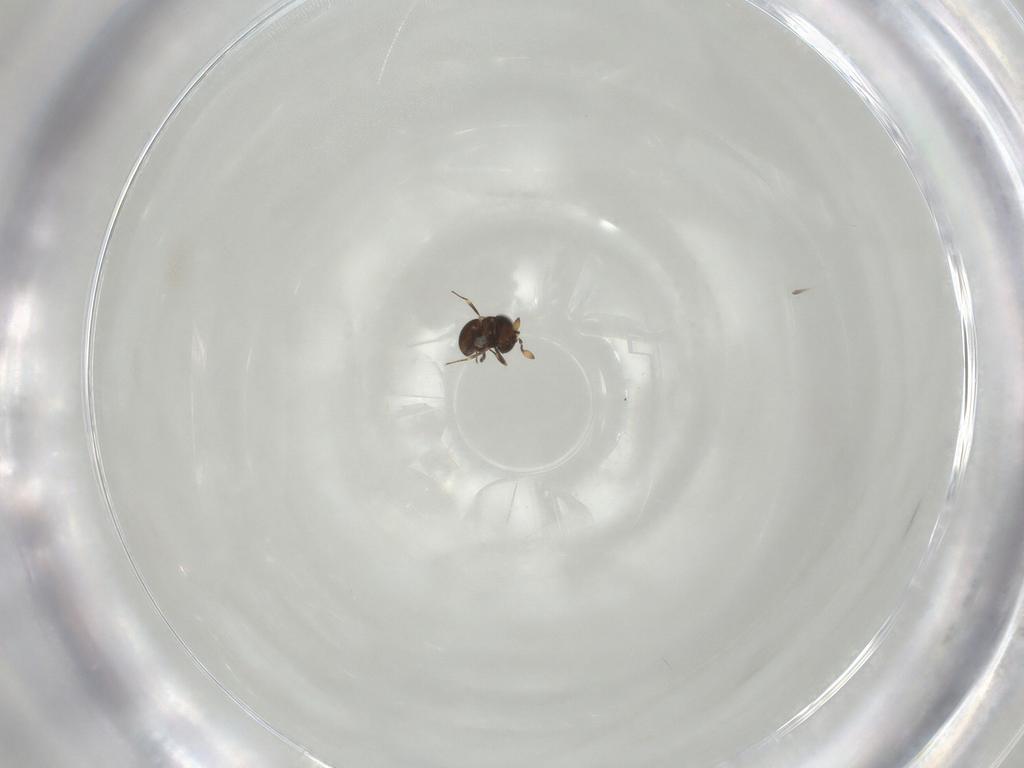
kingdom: Animalia
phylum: Arthropoda
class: Insecta
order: Hymenoptera
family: Scelionidae
